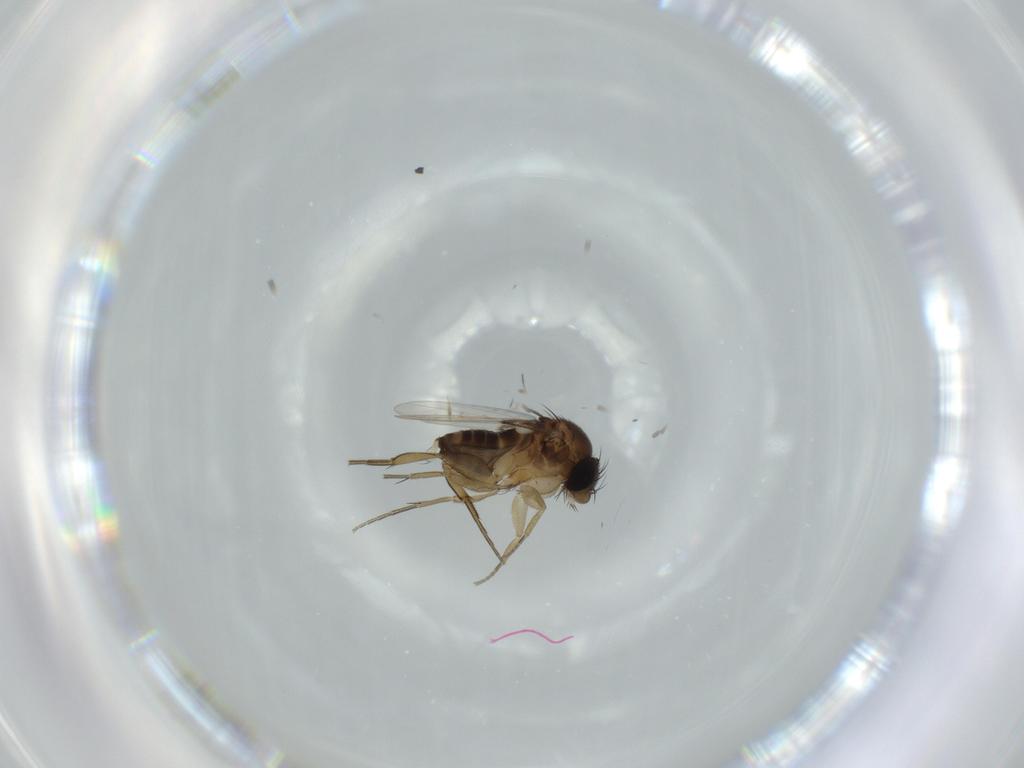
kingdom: Animalia
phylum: Arthropoda
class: Insecta
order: Diptera
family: Phoridae
